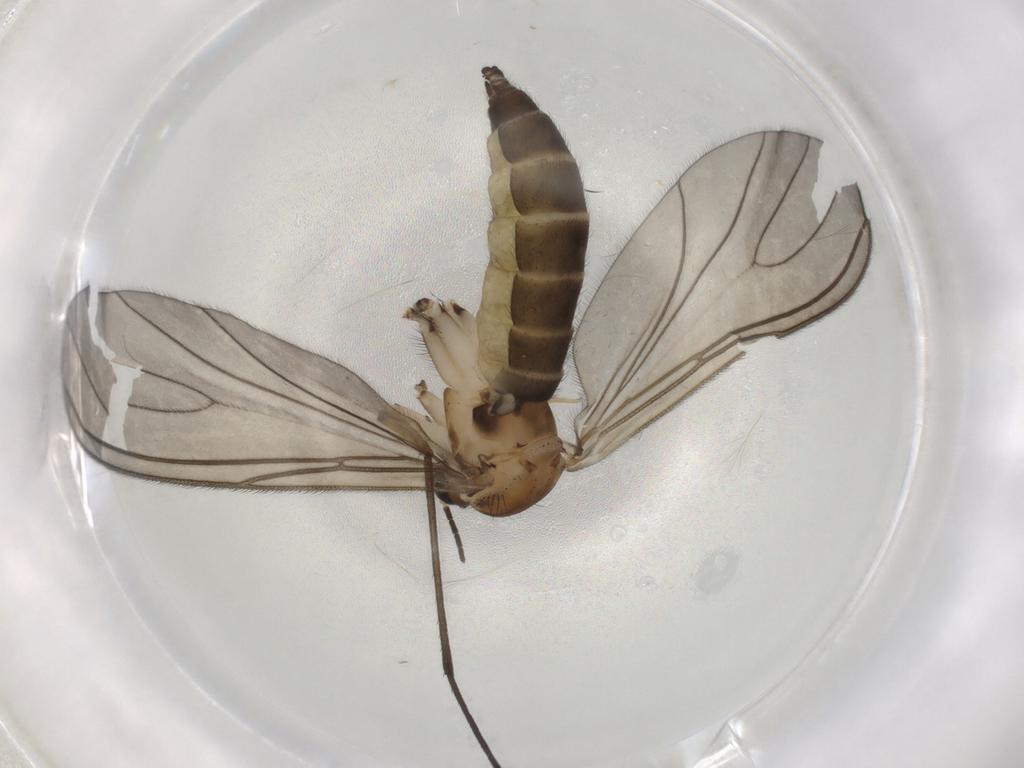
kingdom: Animalia
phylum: Arthropoda
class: Insecta
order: Diptera
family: Sciaridae
